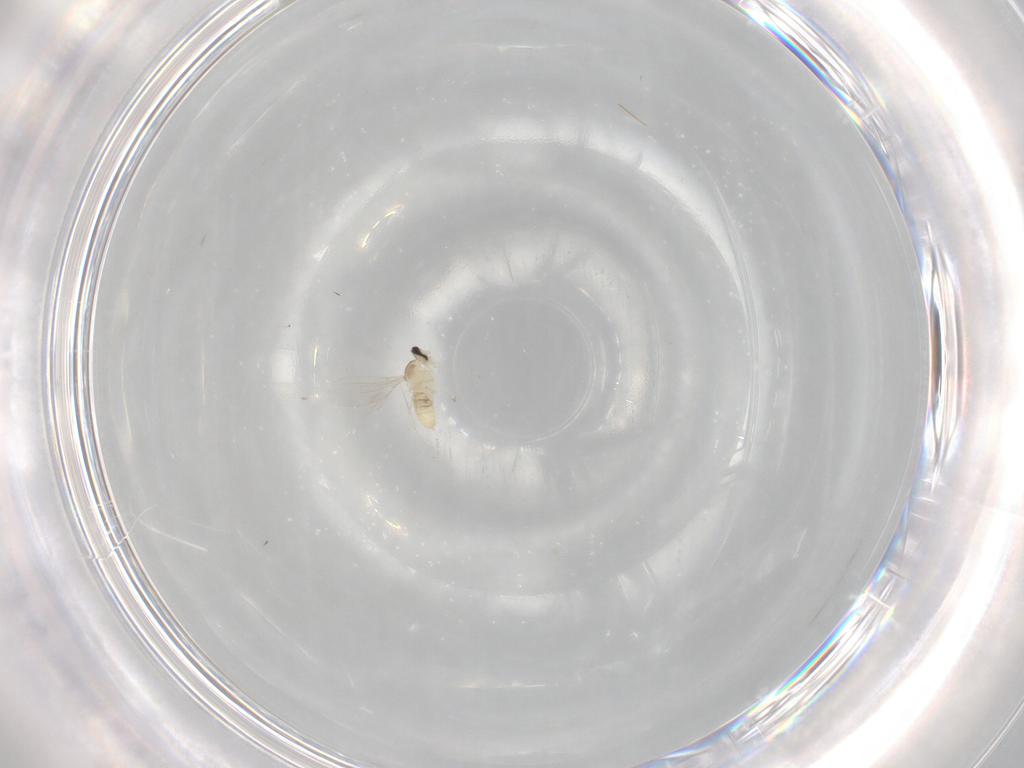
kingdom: Animalia
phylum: Arthropoda
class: Insecta
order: Diptera
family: Cecidomyiidae
